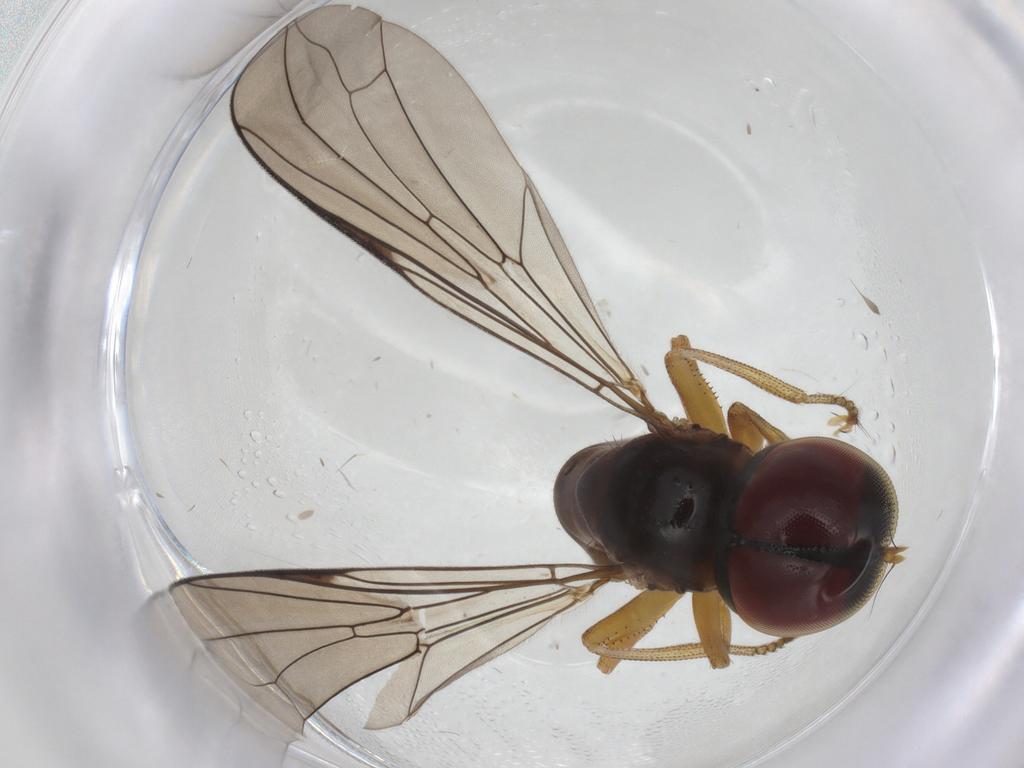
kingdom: Animalia
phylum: Arthropoda
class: Insecta
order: Diptera
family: Pipunculidae
